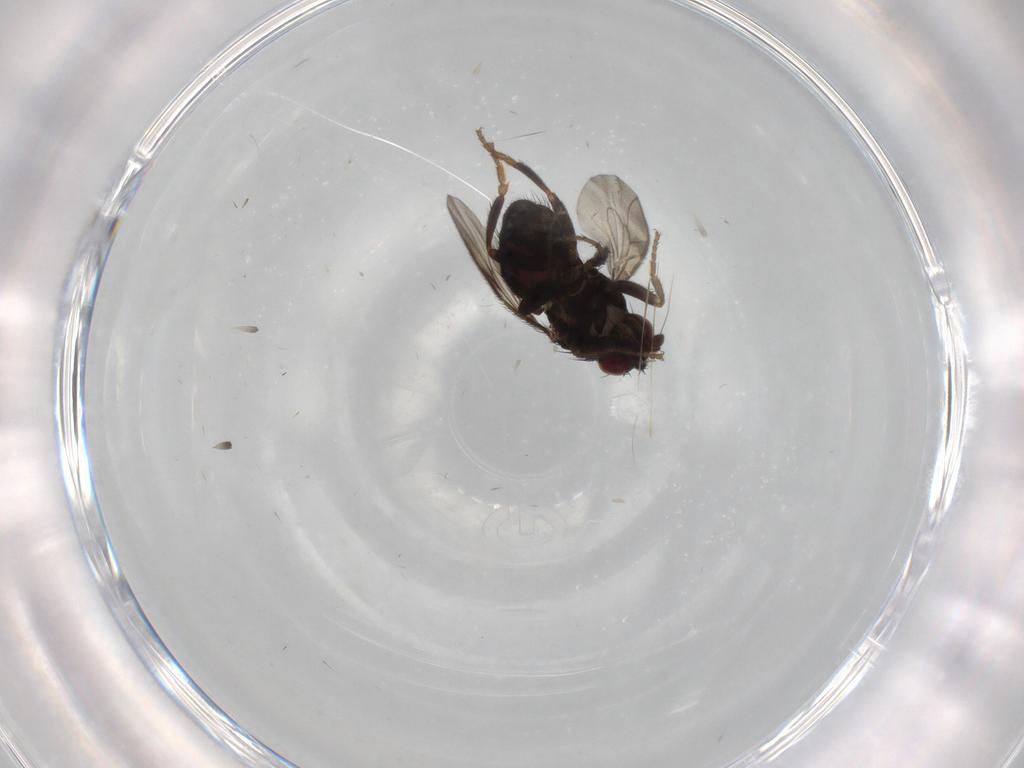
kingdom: Animalia
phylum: Arthropoda
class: Insecta
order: Diptera
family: Sphaeroceridae
